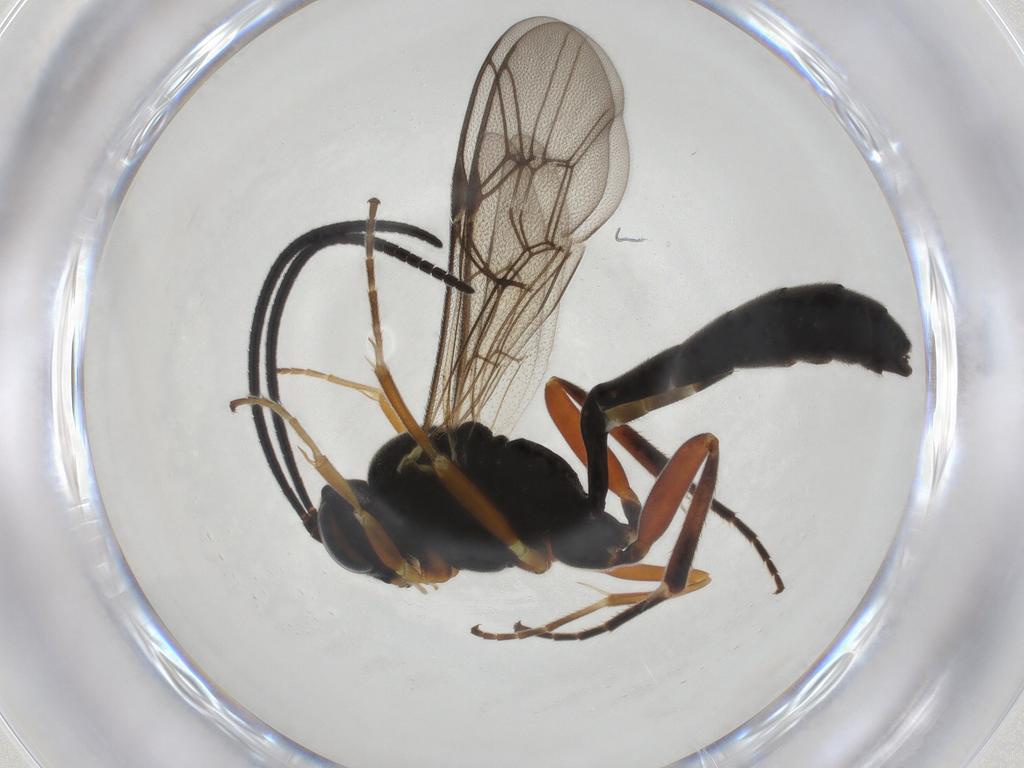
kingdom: Animalia
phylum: Arthropoda
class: Insecta
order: Hymenoptera
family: Ichneumonidae
